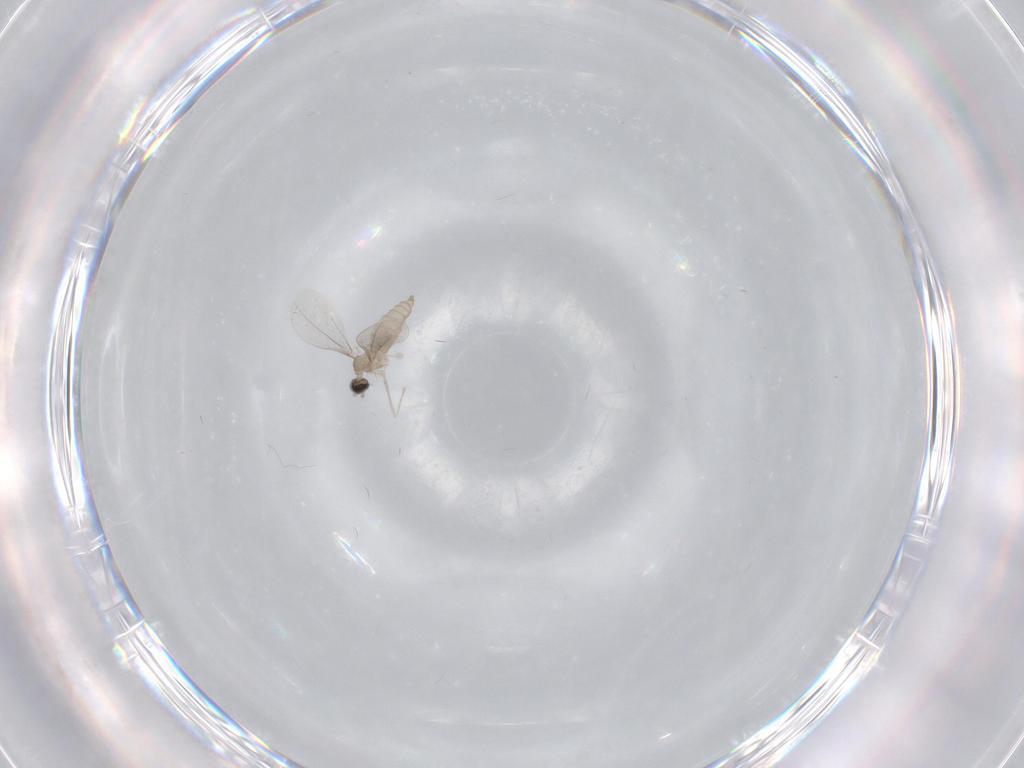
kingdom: Animalia
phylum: Arthropoda
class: Insecta
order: Diptera
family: Cecidomyiidae
